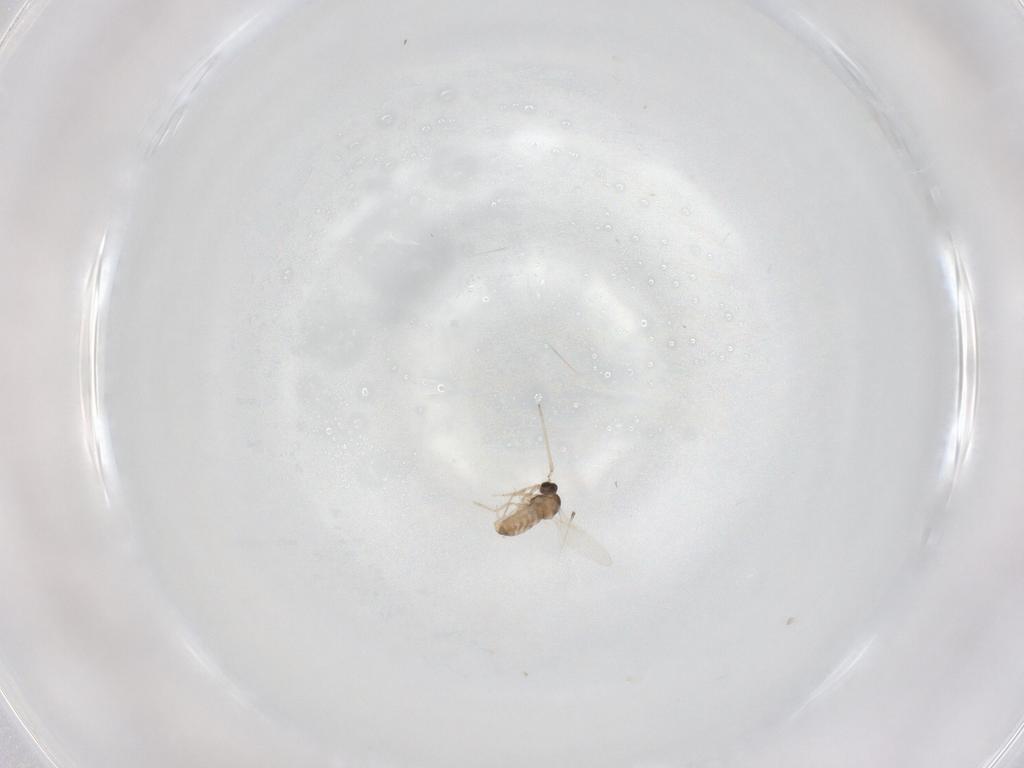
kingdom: Animalia
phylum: Arthropoda
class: Insecta
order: Diptera
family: Cecidomyiidae
